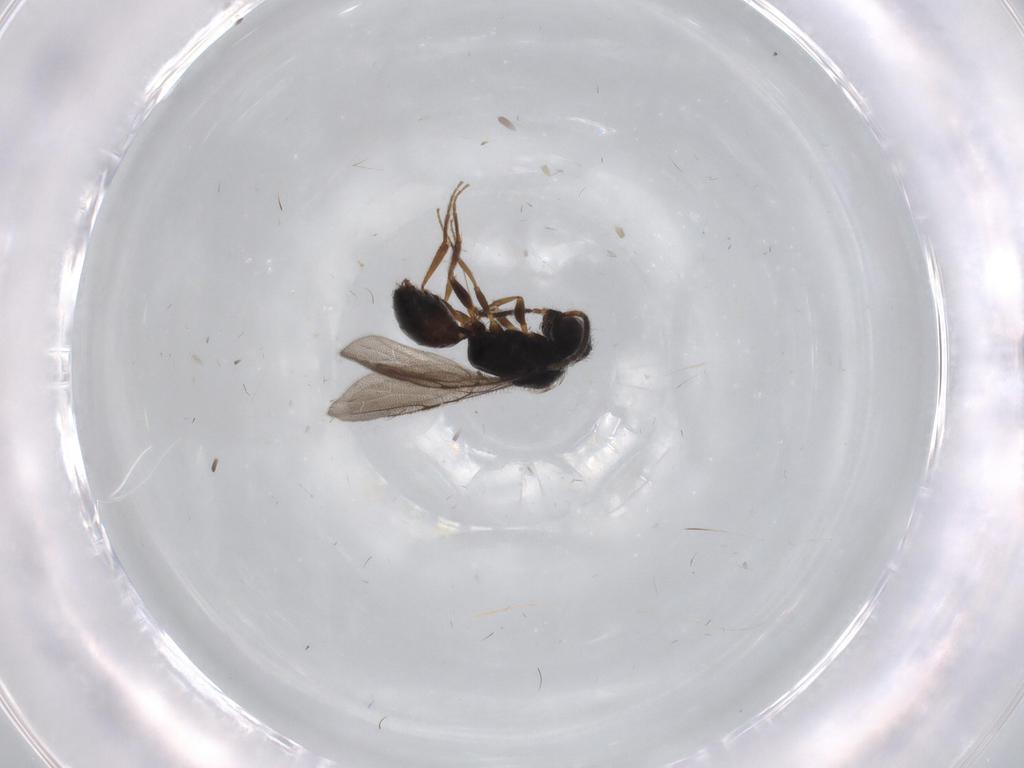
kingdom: Animalia
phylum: Arthropoda
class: Insecta
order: Hymenoptera
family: Bethylidae
